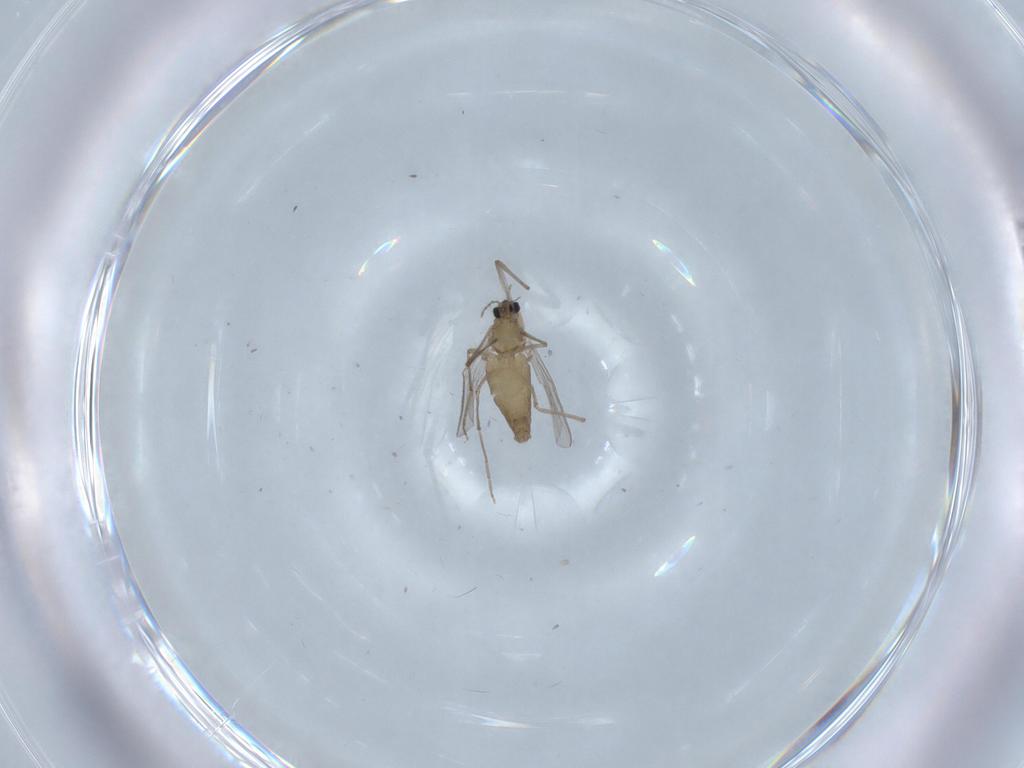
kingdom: Animalia
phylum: Arthropoda
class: Insecta
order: Diptera
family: Chironomidae
